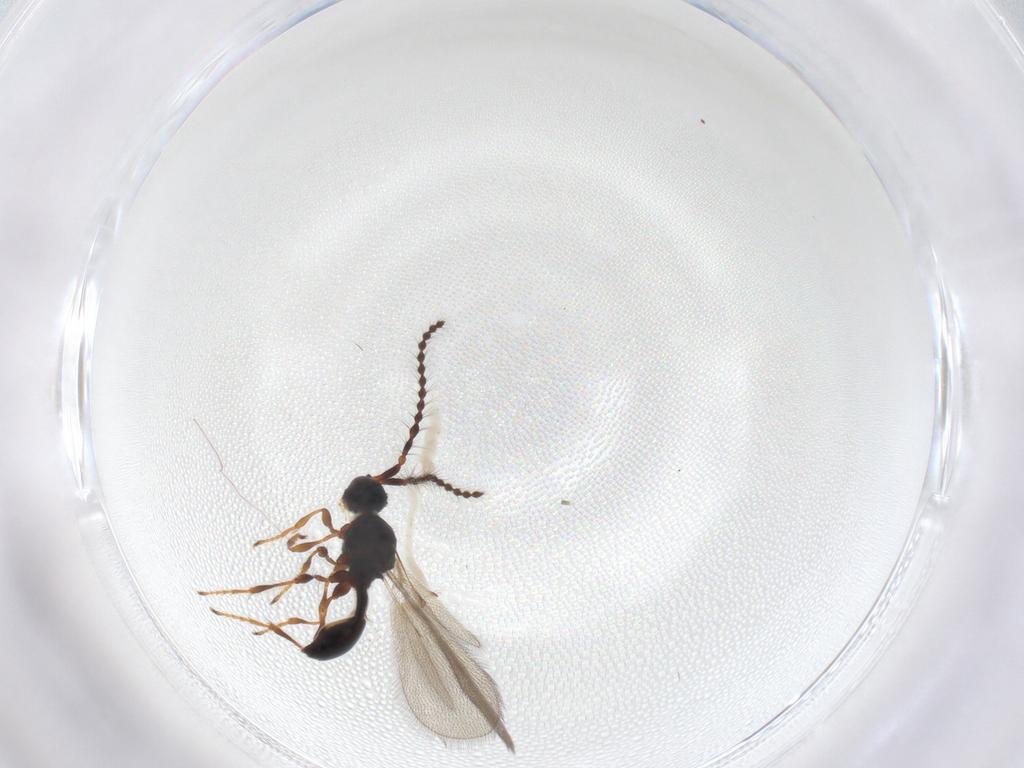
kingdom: Animalia
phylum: Arthropoda
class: Insecta
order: Hymenoptera
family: Diapriidae
